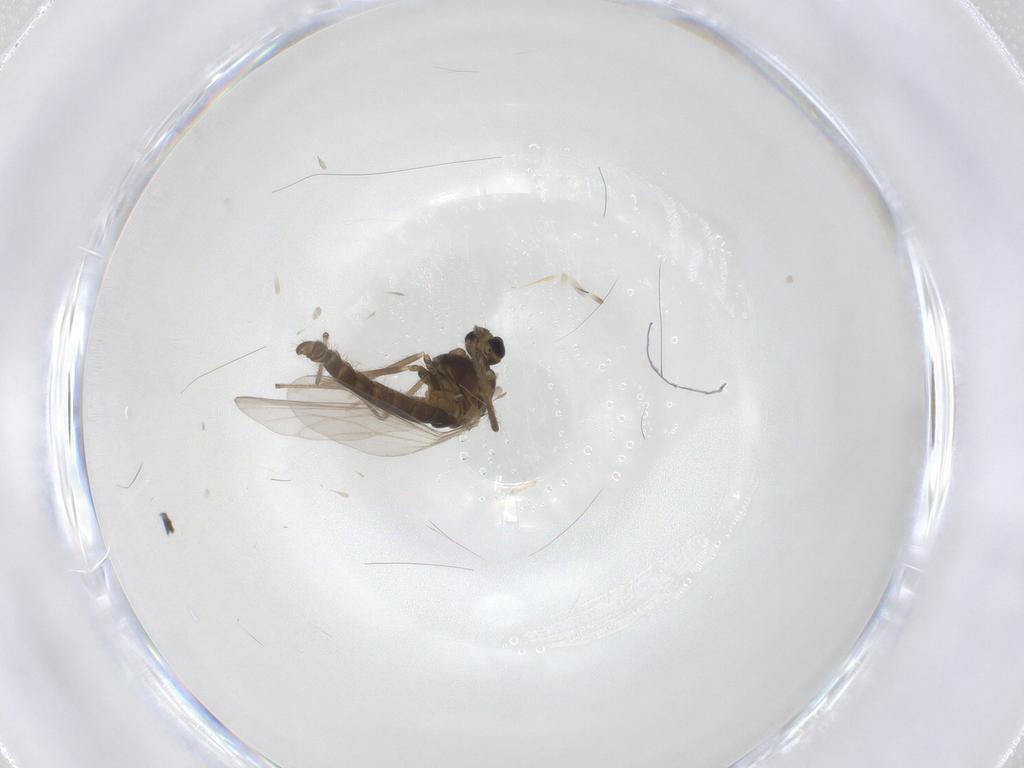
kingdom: Animalia
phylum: Arthropoda
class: Insecta
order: Diptera
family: Chironomidae
